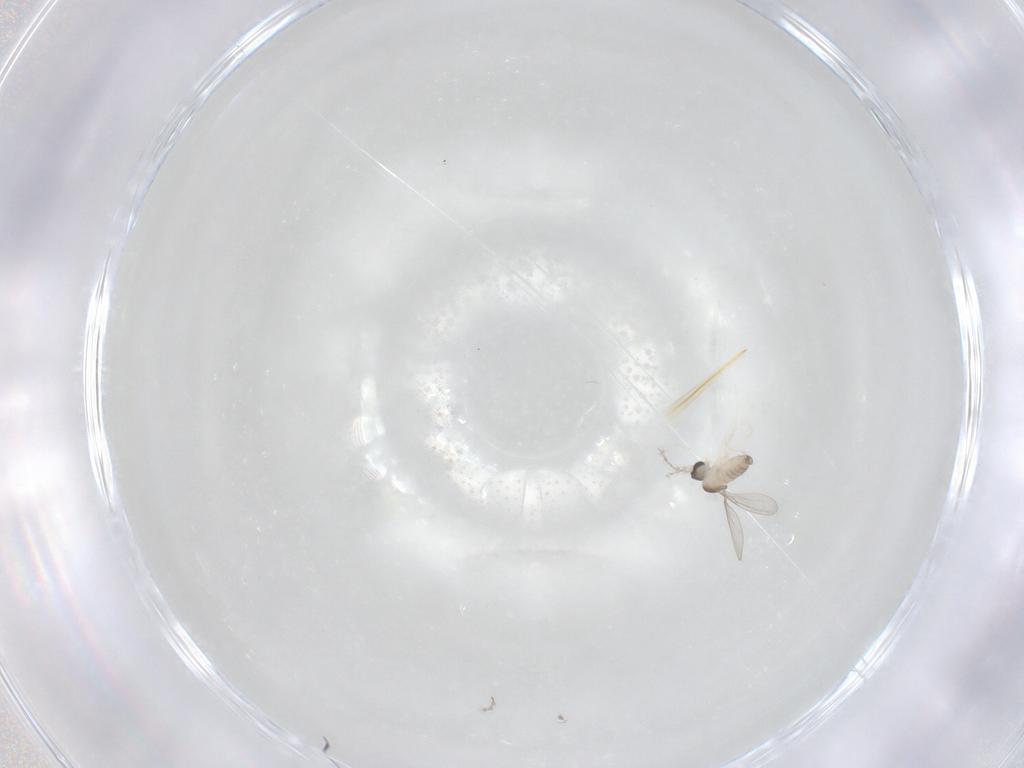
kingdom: Animalia
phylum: Arthropoda
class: Insecta
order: Diptera
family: Cecidomyiidae
